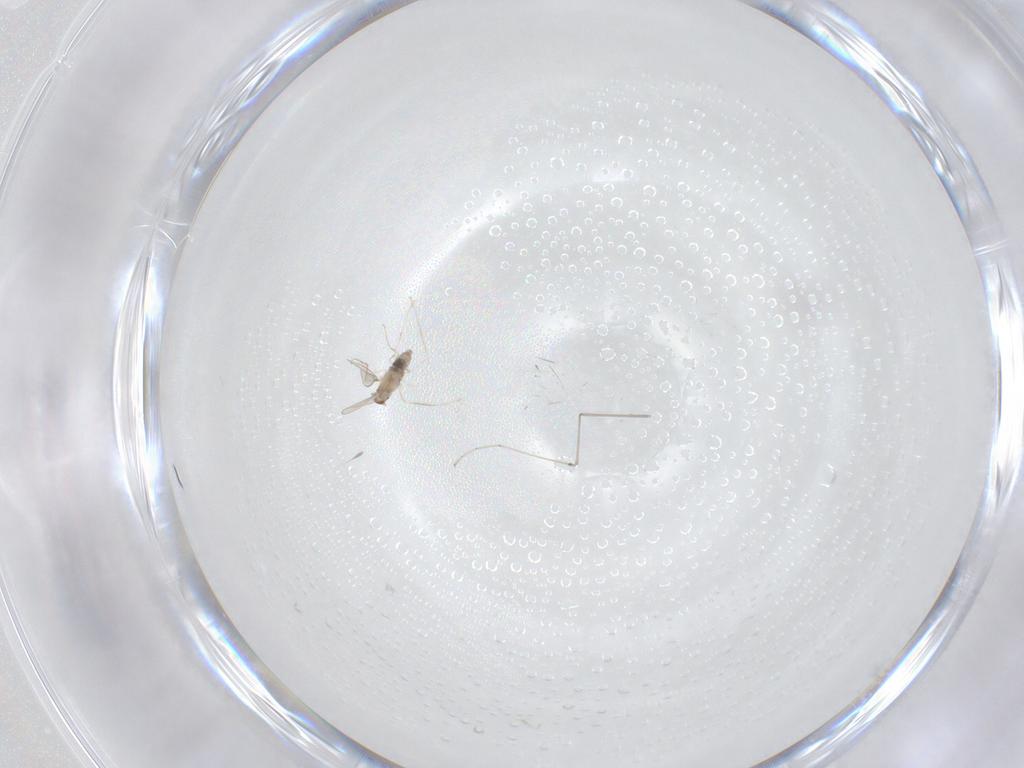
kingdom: Animalia
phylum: Arthropoda
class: Insecta
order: Diptera
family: Cecidomyiidae
